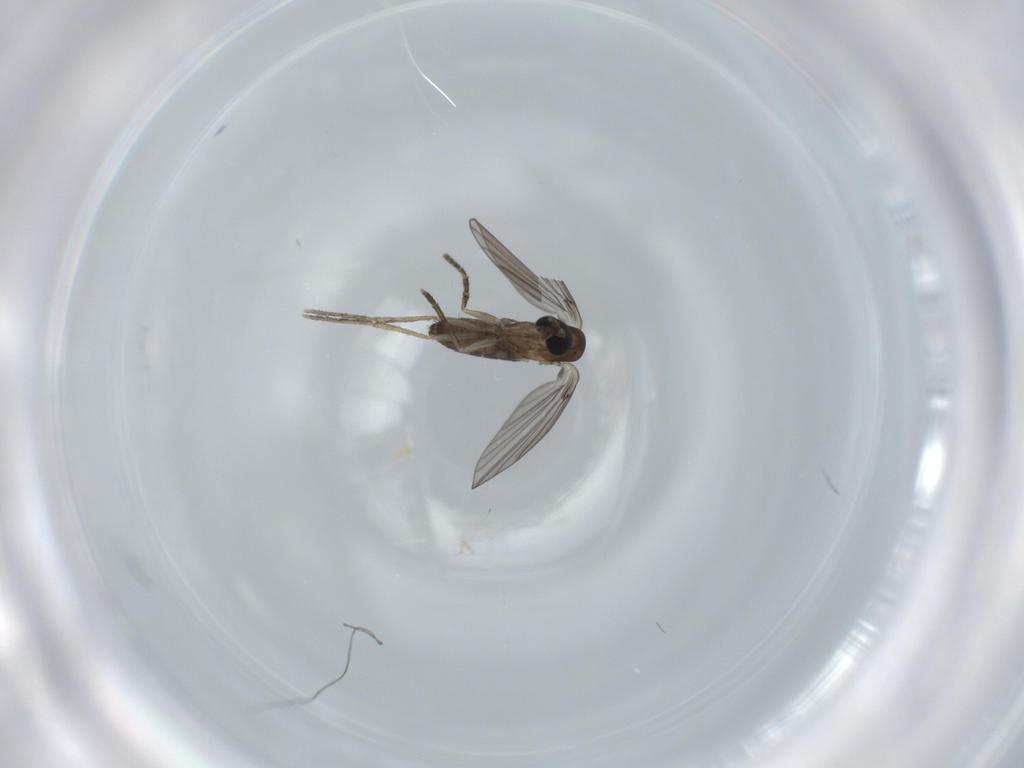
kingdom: Animalia
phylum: Arthropoda
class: Insecta
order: Diptera
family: Psychodidae
